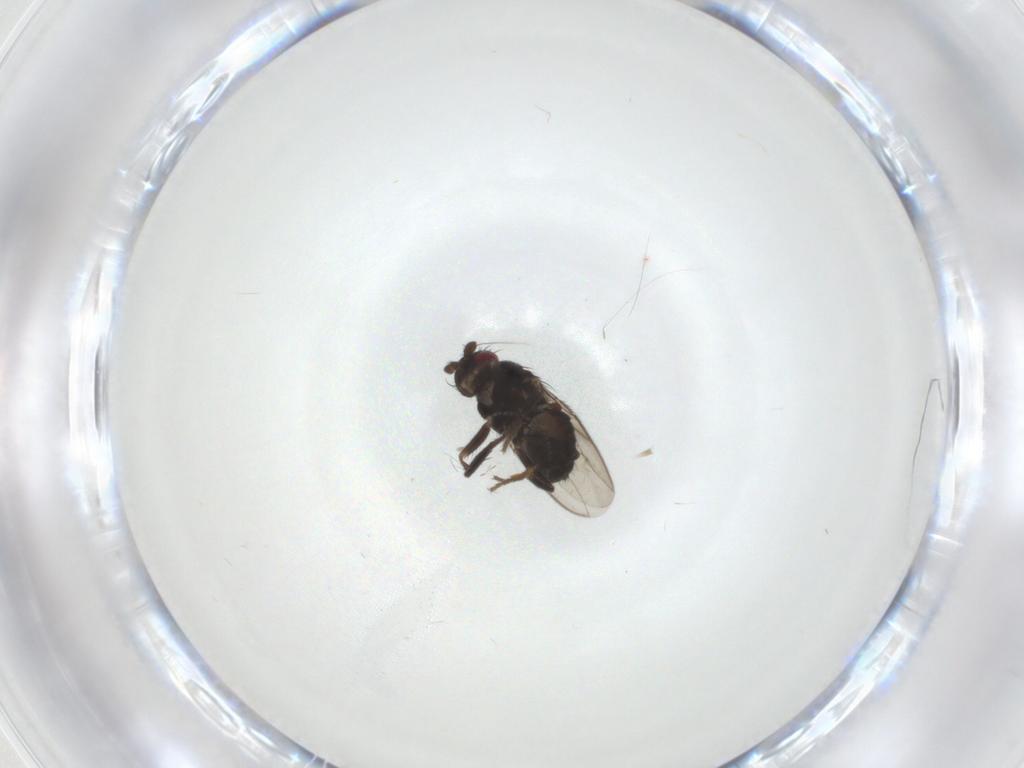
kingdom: Animalia
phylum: Arthropoda
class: Insecta
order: Diptera
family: Sphaeroceridae
